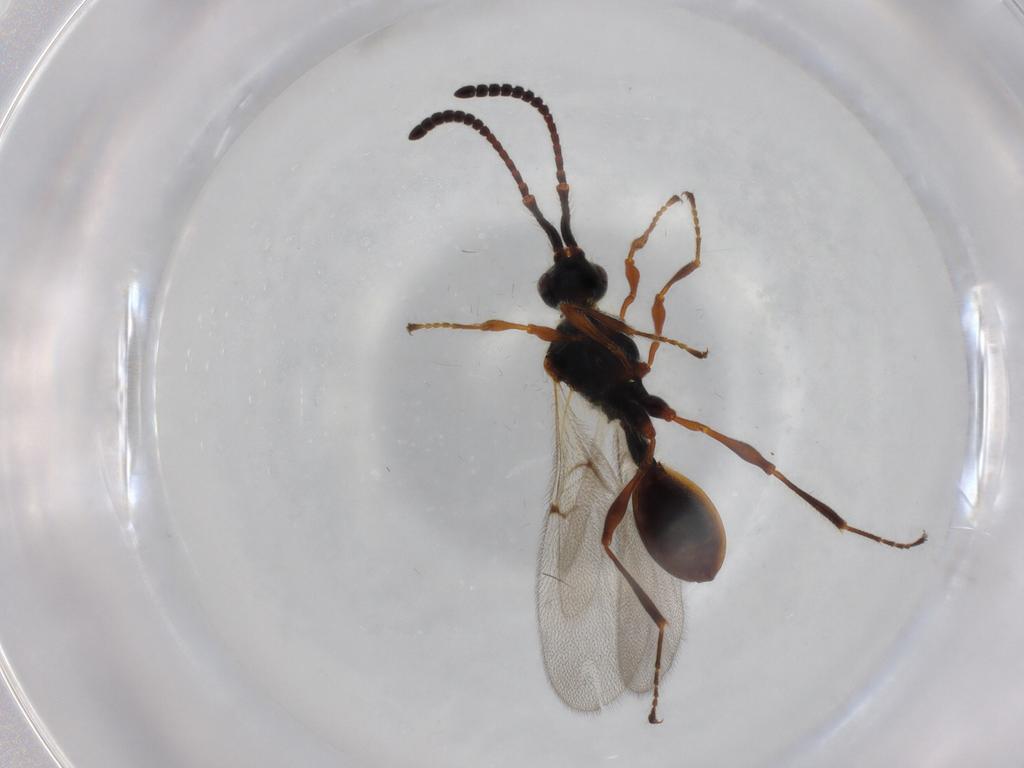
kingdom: Animalia
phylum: Arthropoda
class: Insecta
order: Hymenoptera
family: Diapriidae
